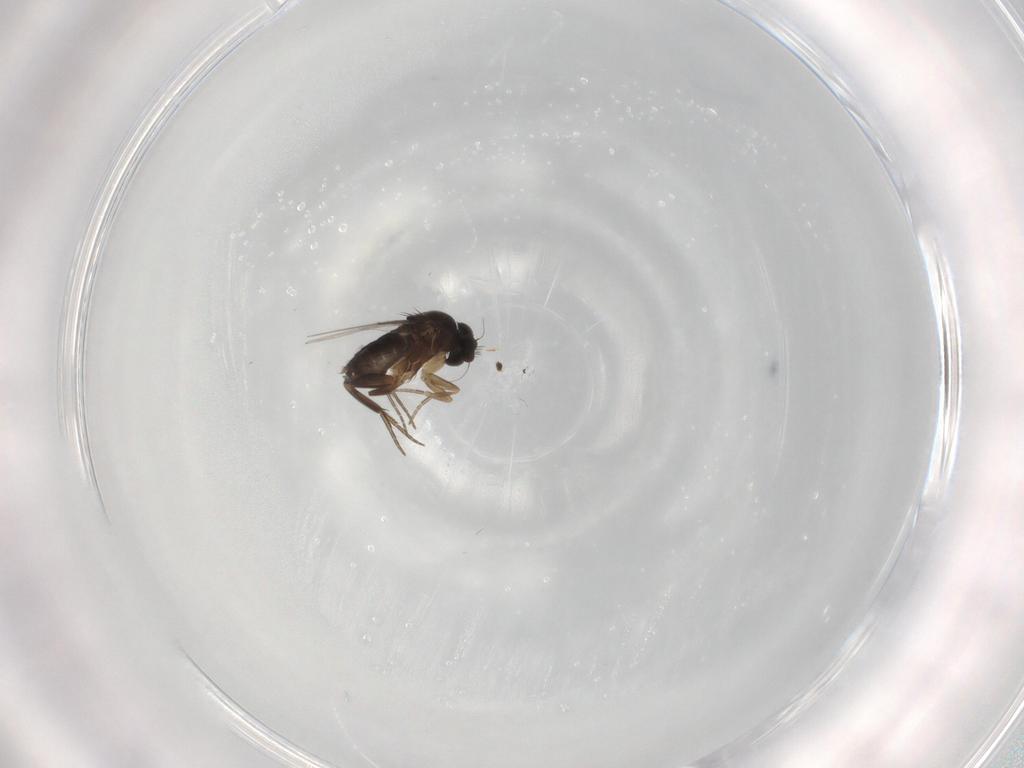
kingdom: Animalia
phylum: Arthropoda
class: Insecta
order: Diptera
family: Phoridae
